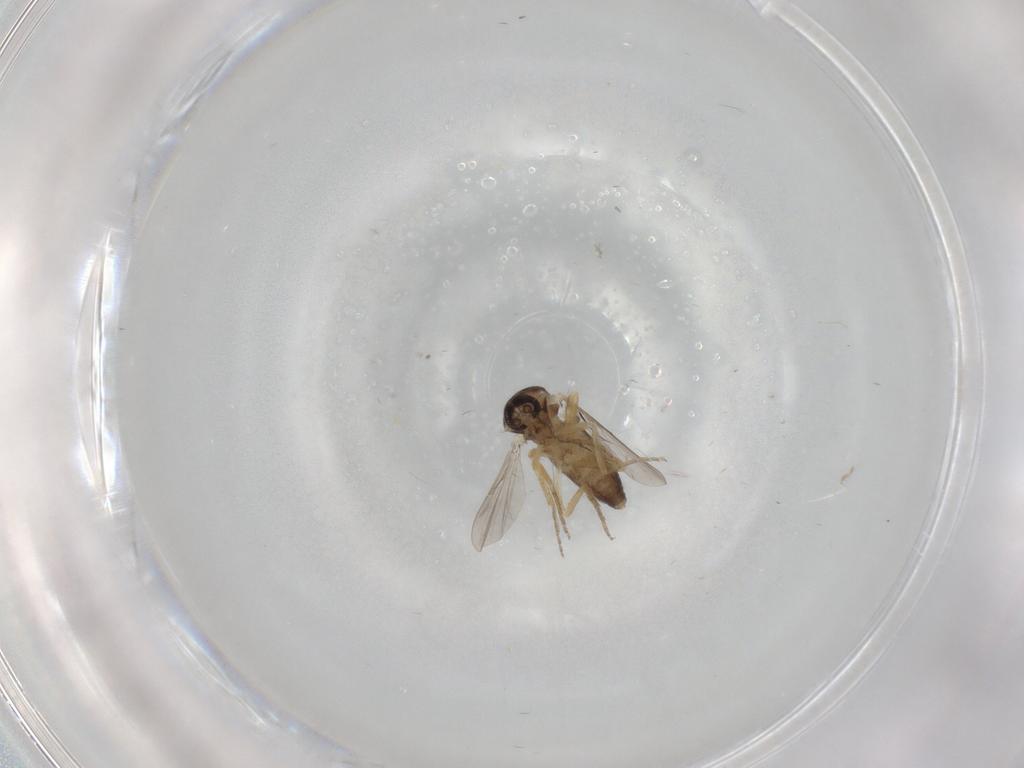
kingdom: Animalia
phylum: Arthropoda
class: Insecta
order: Diptera
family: Ceratopogonidae
